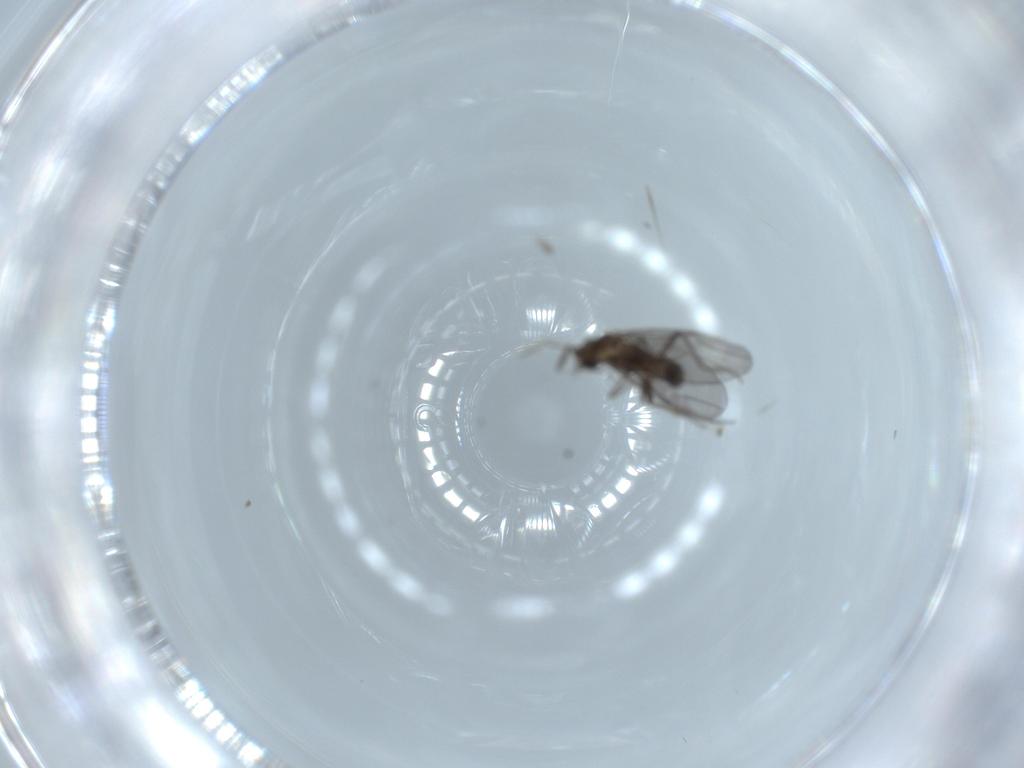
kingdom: Animalia
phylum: Arthropoda
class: Insecta
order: Diptera
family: Phoridae
